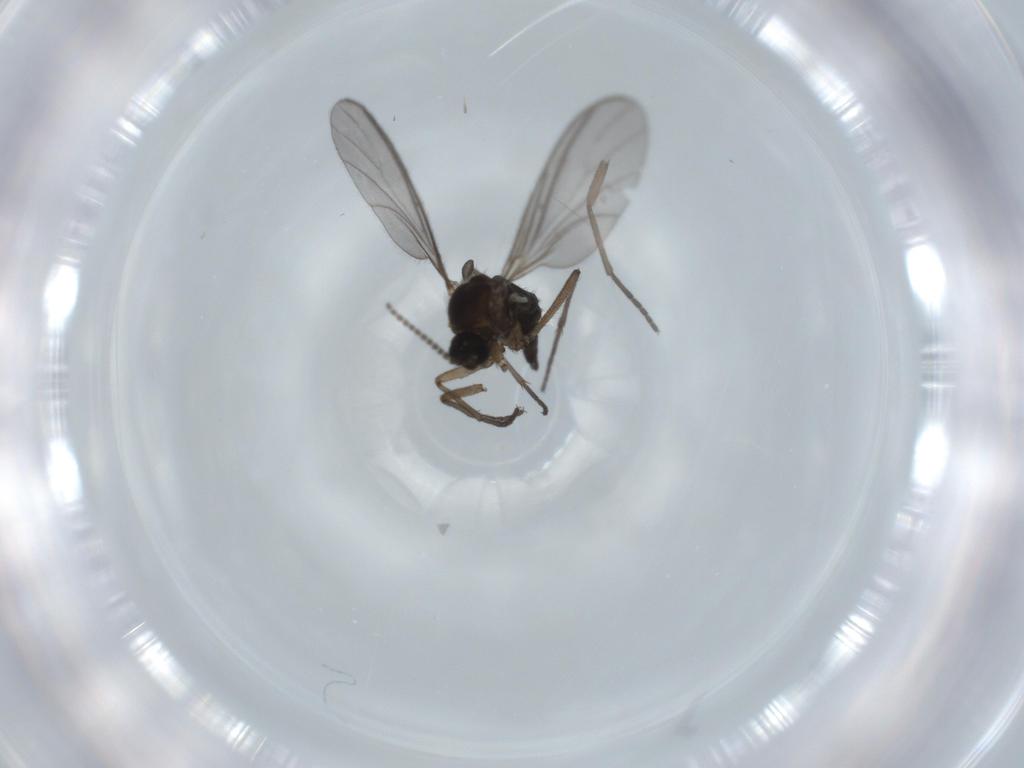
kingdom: Animalia
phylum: Arthropoda
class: Insecta
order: Diptera
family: Sciaridae
